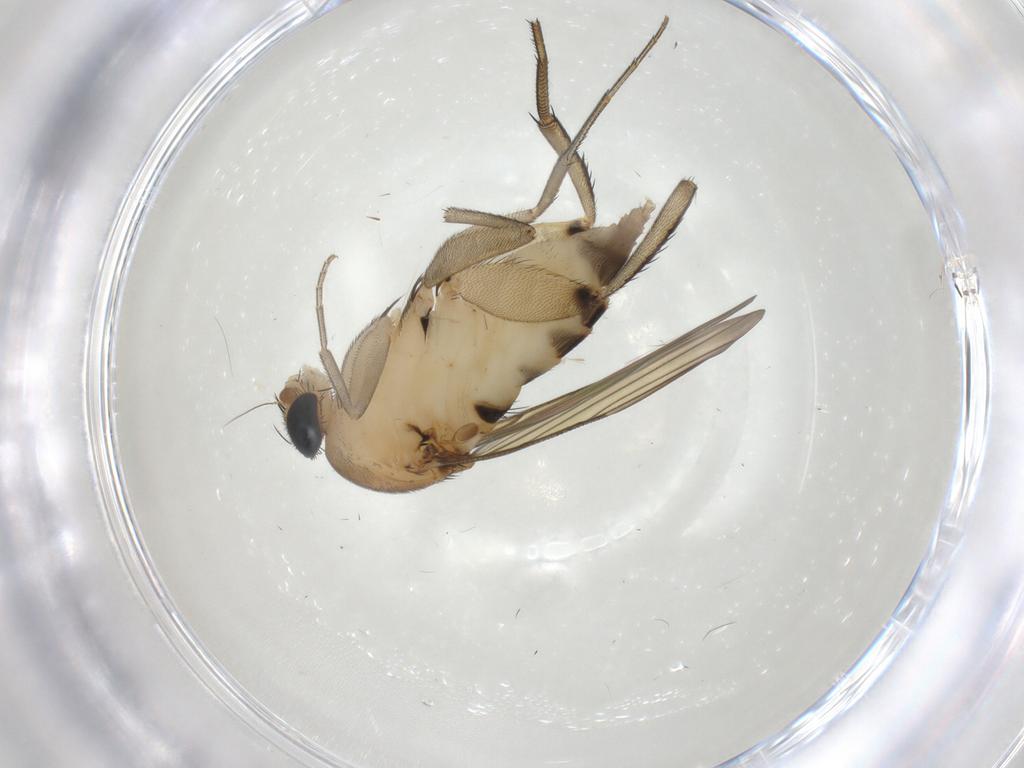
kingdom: Animalia
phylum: Arthropoda
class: Insecta
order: Diptera
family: Phoridae
